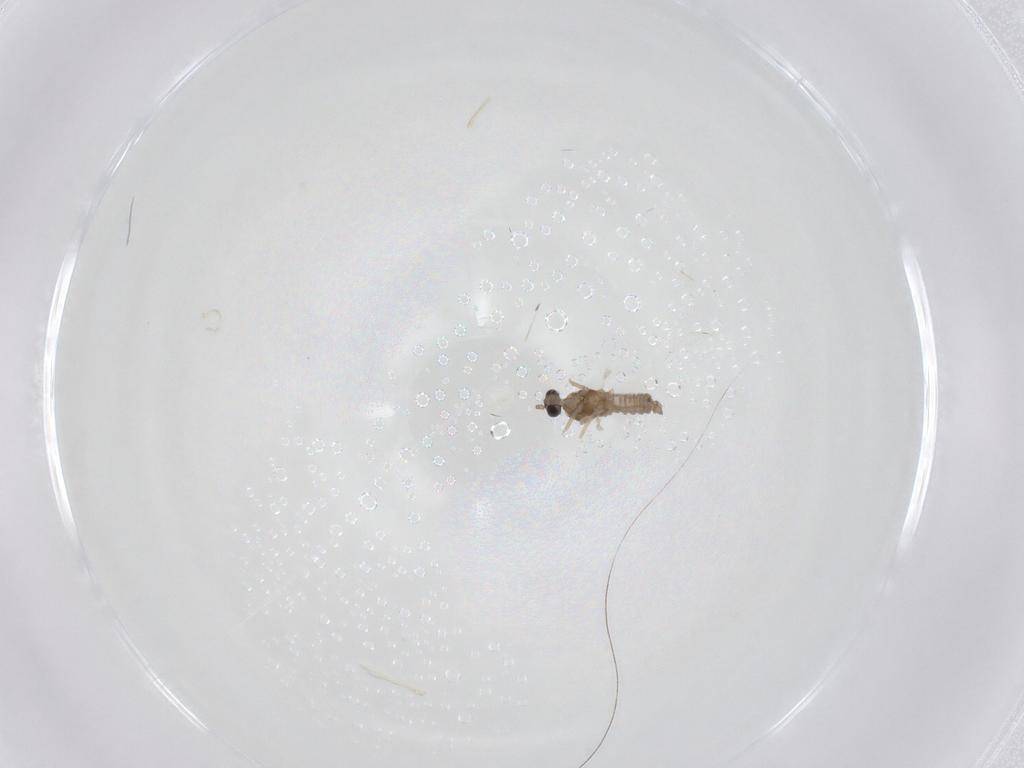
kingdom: Animalia
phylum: Arthropoda
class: Insecta
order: Diptera
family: Cecidomyiidae
